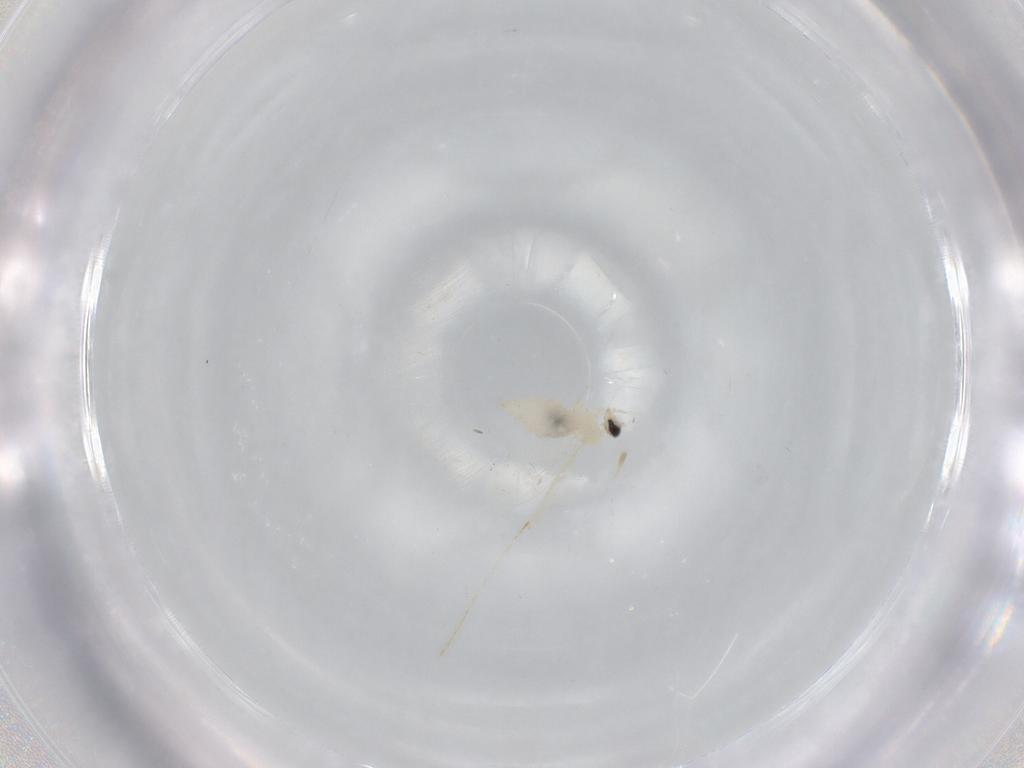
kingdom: Animalia
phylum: Arthropoda
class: Insecta
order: Diptera
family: Cecidomyiidae
